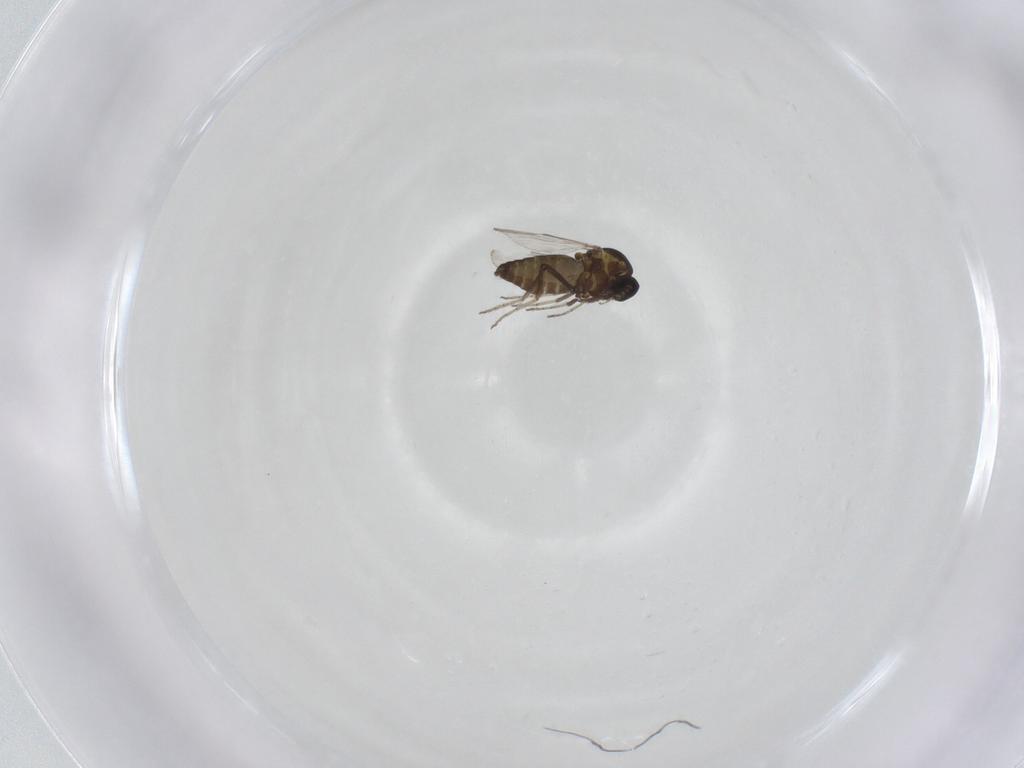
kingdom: Animalia
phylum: Arthropoda
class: Insecta
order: Diptera
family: Ceratopogonidae
